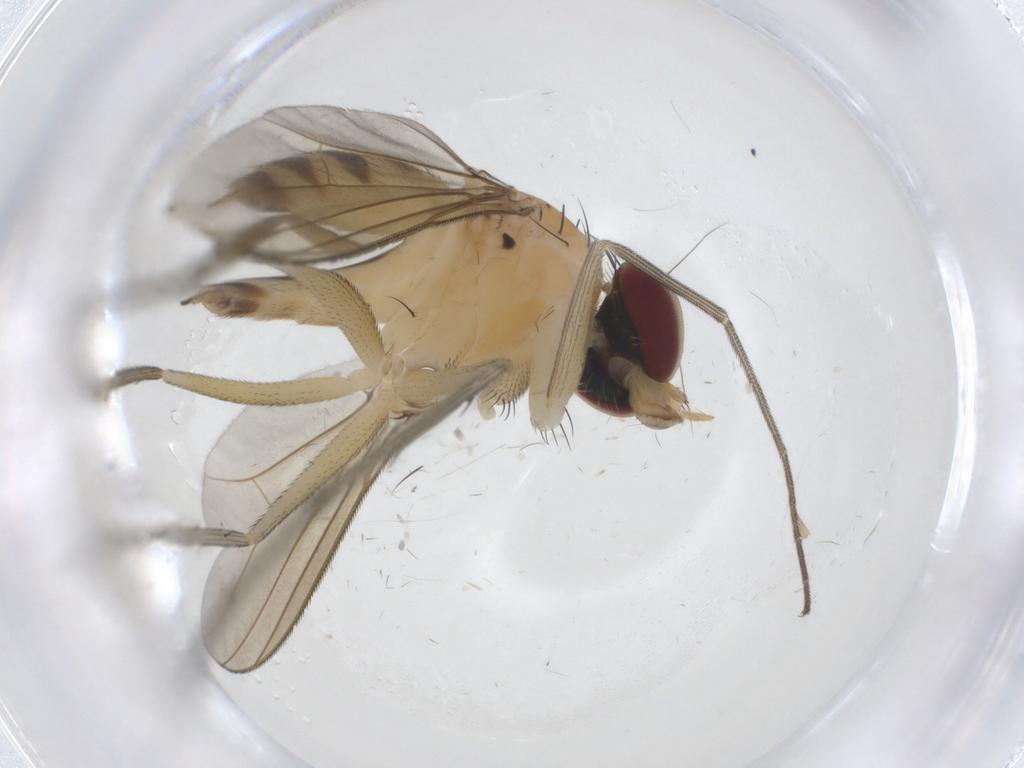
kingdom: Animalia
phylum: Arthropoda
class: Insecta
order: Diptera
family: Dolichopodidae
